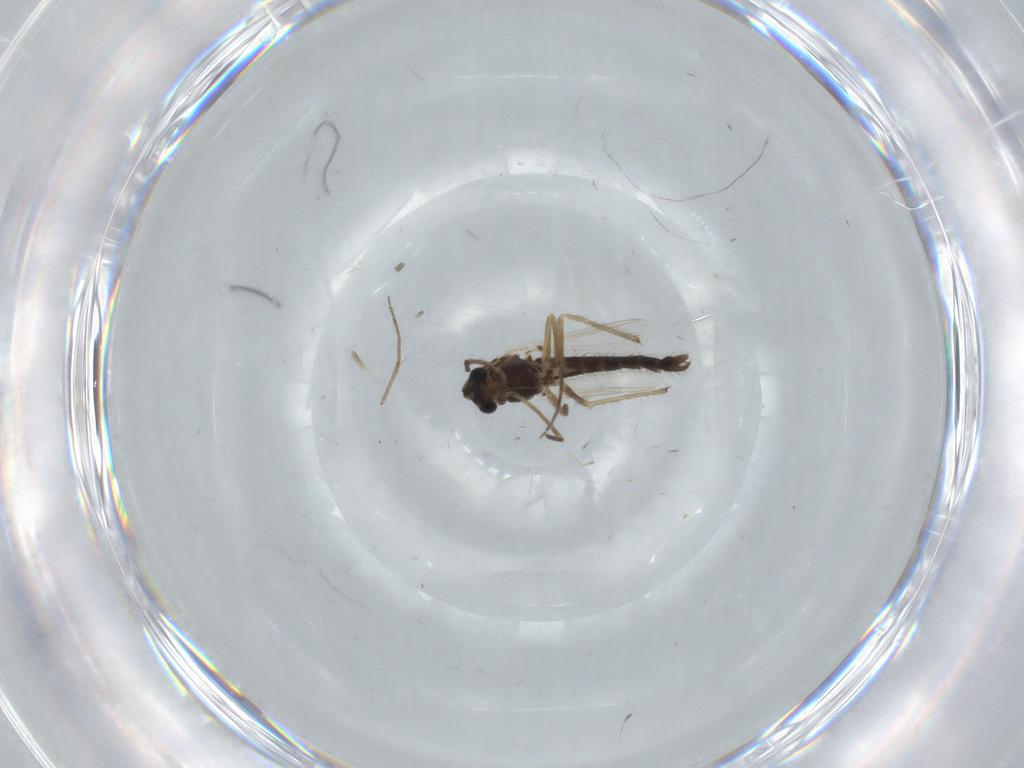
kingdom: Animalia
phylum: Arthropoda
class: Insecta
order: Diptera
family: Chironomidae
